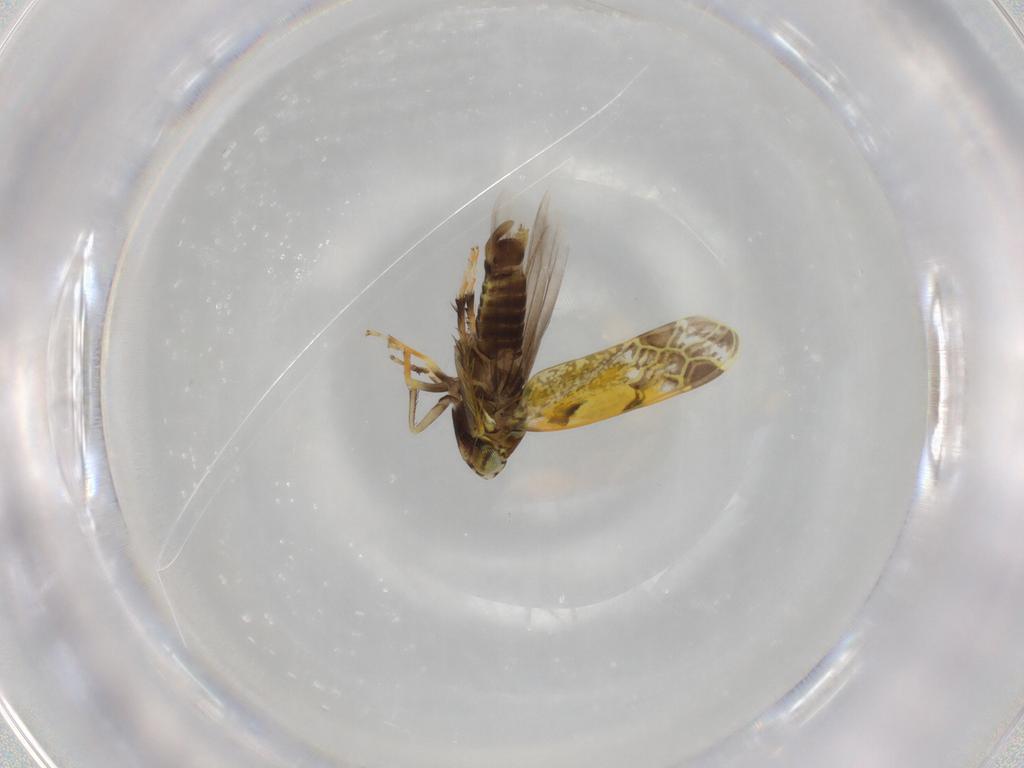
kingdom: Animalia
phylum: Arthropoda
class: Insecta
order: Hemiptera
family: Cicadellidae
